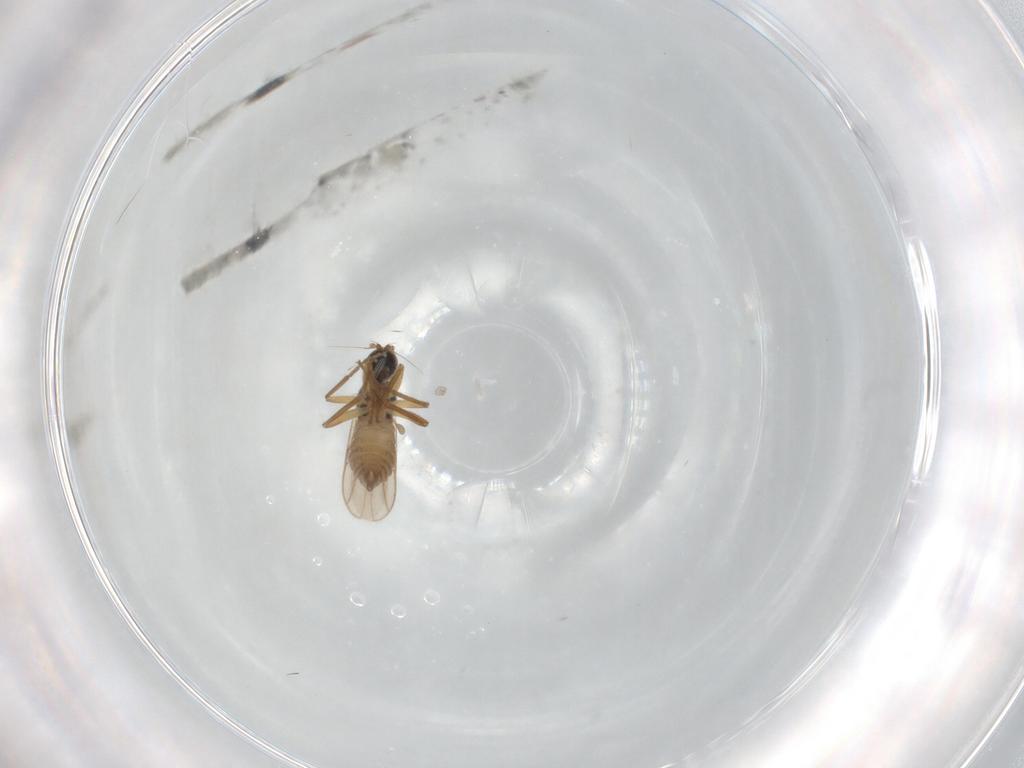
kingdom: Animalia
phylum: Arthropoda
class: Insecta
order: Diptera
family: Hybotidae
